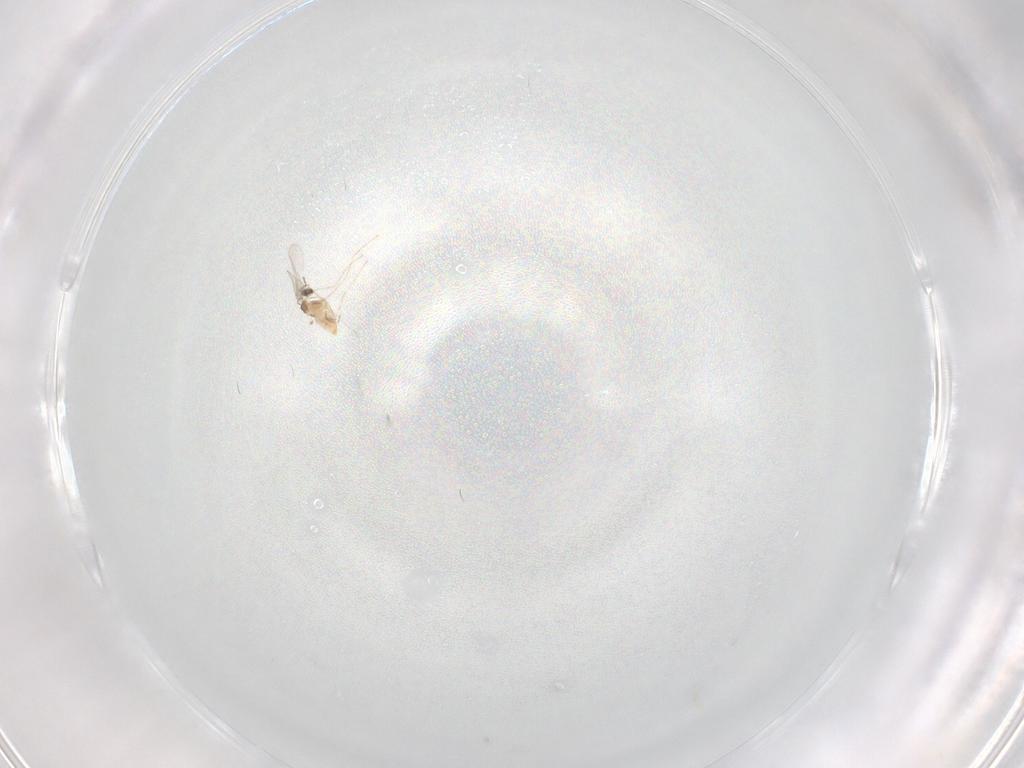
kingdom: Animalia
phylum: Arthropoda
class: Insecta
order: Diptera
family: Cecidomyiidae
